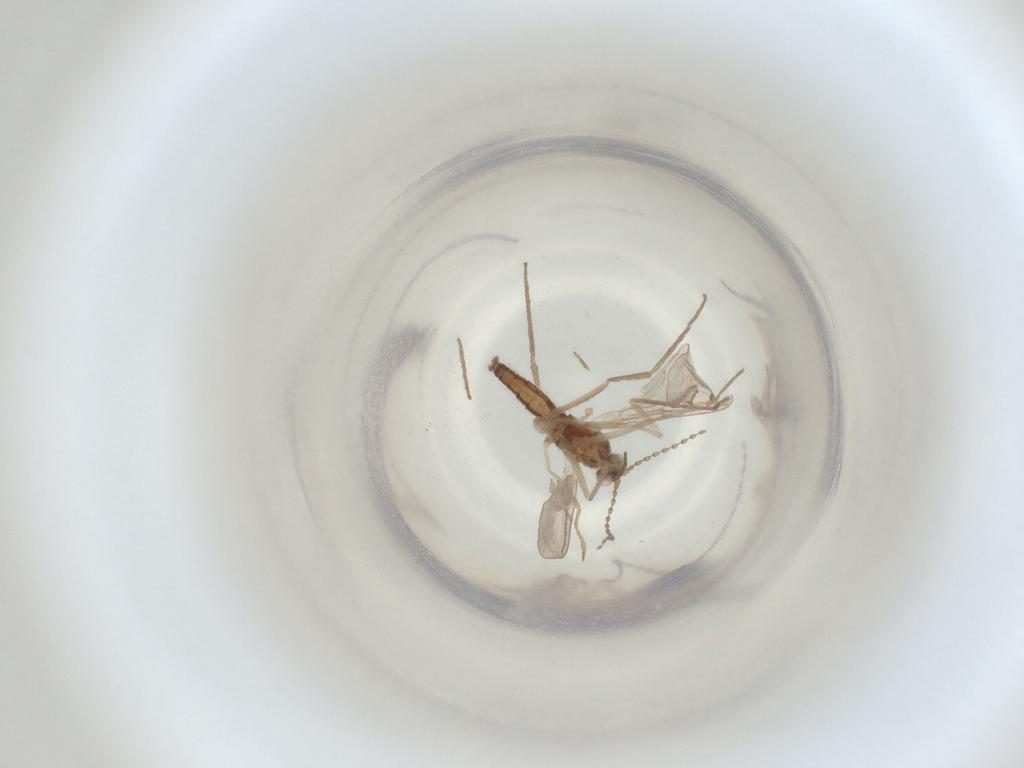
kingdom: Animalia
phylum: Arthropoda
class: Insecta
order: Diptera
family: Cecidomyiidae
